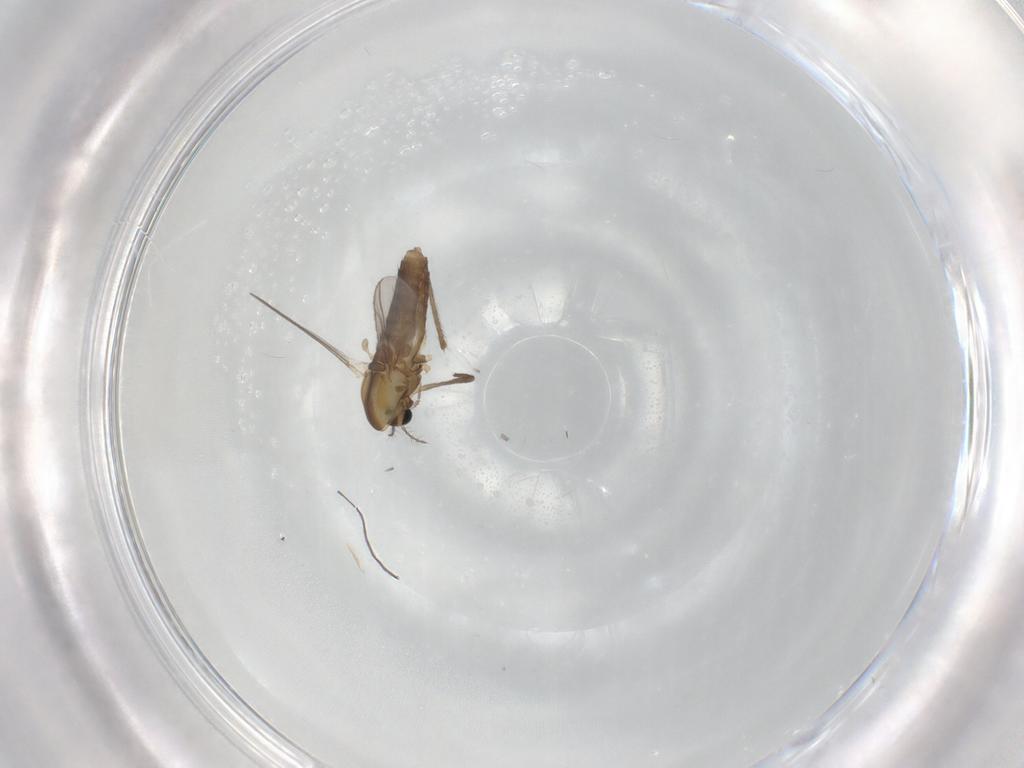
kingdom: Animalia
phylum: Arthropoda
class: Insecta
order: Diptera
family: Chironomidae
